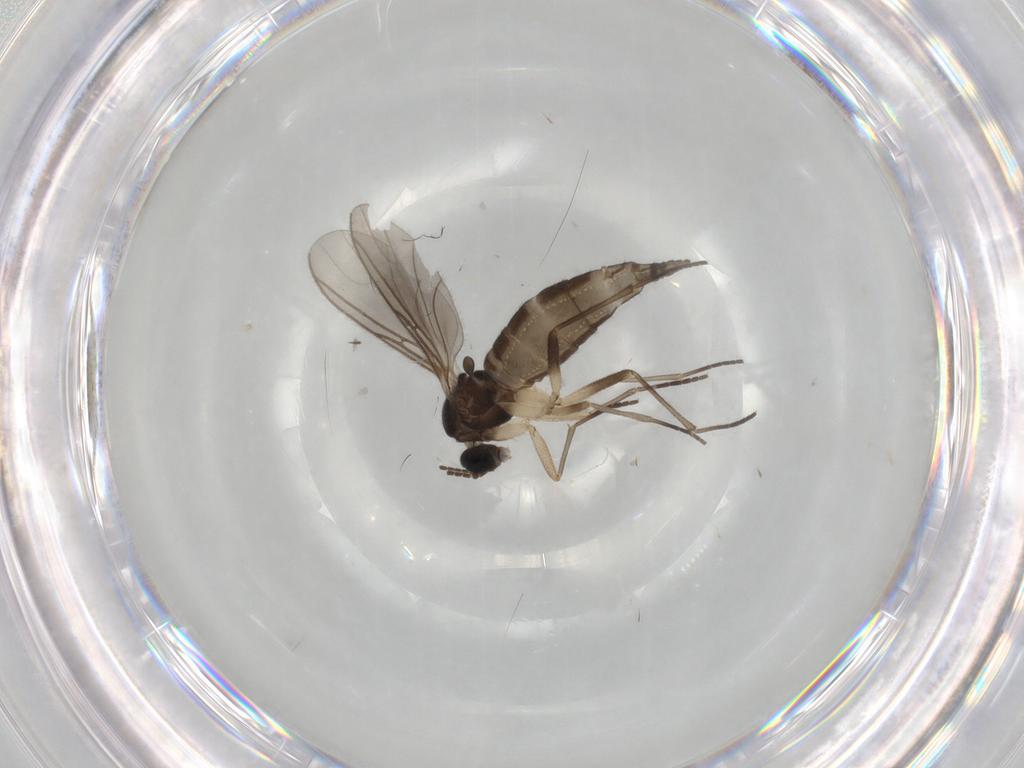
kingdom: Animalia
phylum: Arthropoda
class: Insecta
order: Diptera
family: Sciaridae
